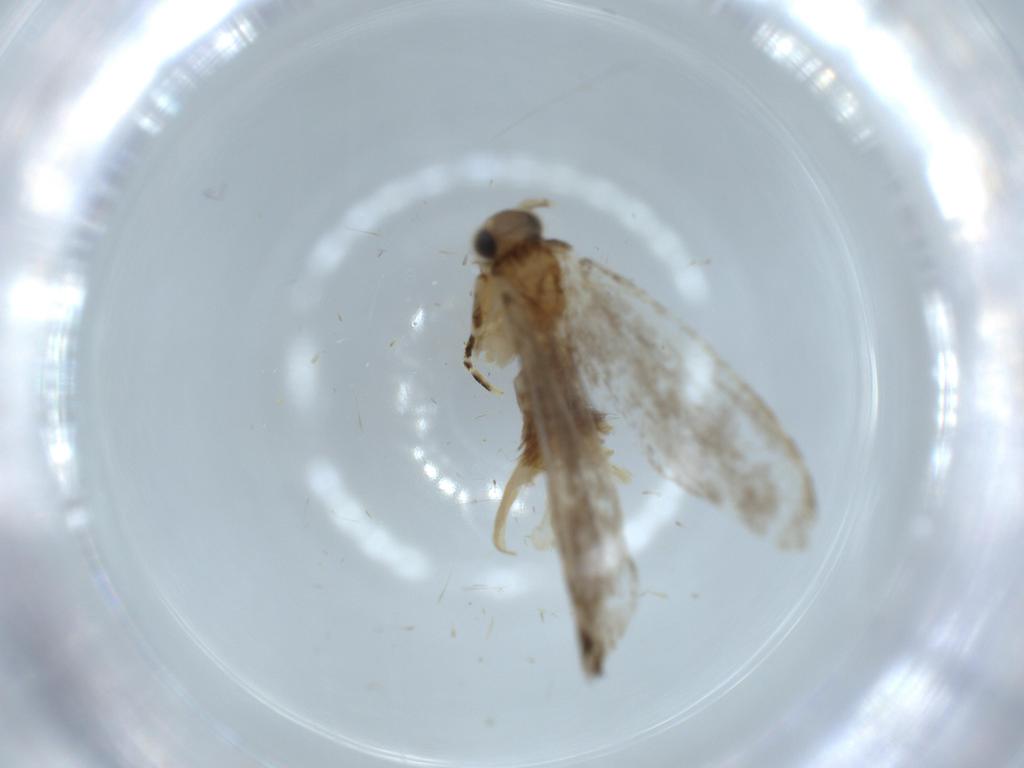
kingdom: Animalia
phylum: Arthropoda
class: Insecta
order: Lepidoptera
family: Tineidae
